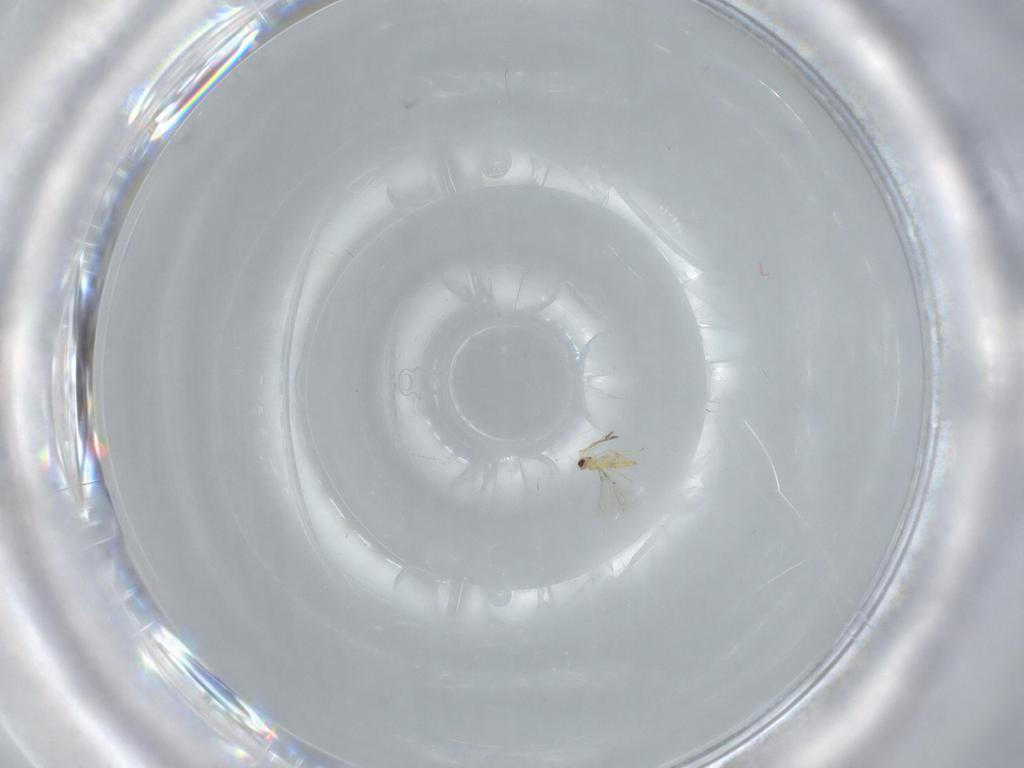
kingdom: Animalia
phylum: Arthropoda
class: Insecta
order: Hymenoptera
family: Mymaridae
